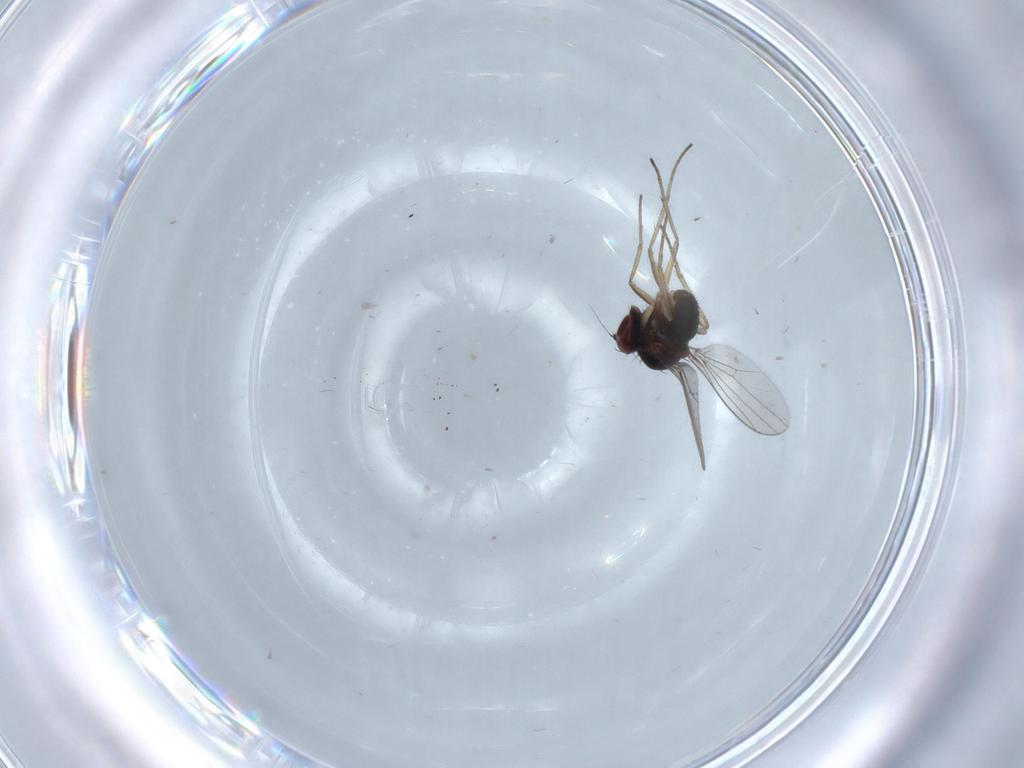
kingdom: Animalia
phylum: Arthropoda
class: Insecta
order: Diptera
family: Dolichopodidae
